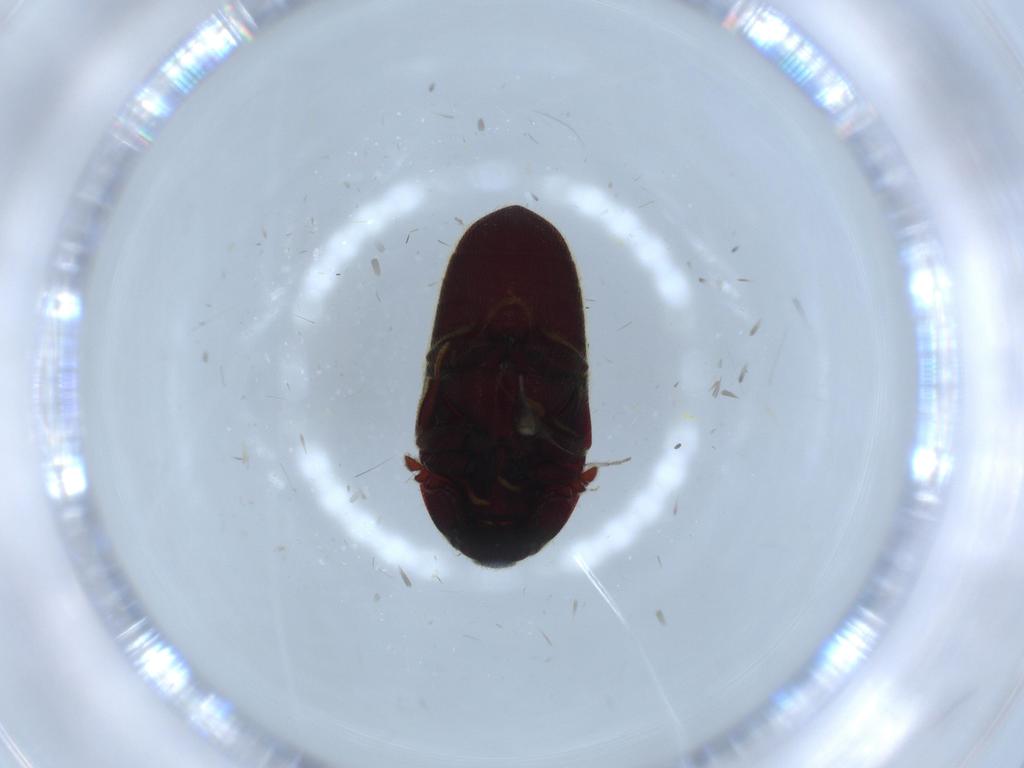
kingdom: Animalia
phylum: Arthropoda
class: Insecta
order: Coleoptera
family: Throscidae
